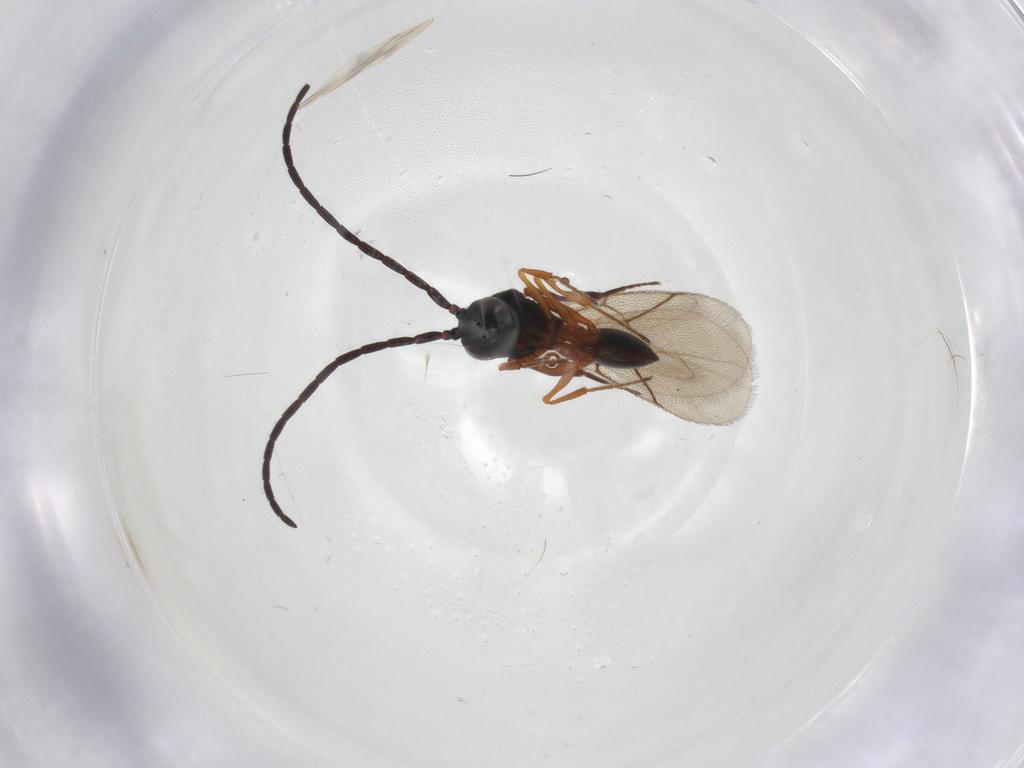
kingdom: Animalia
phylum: Arthropoda
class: Insecta
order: Hymenoptera
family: Figitidae
